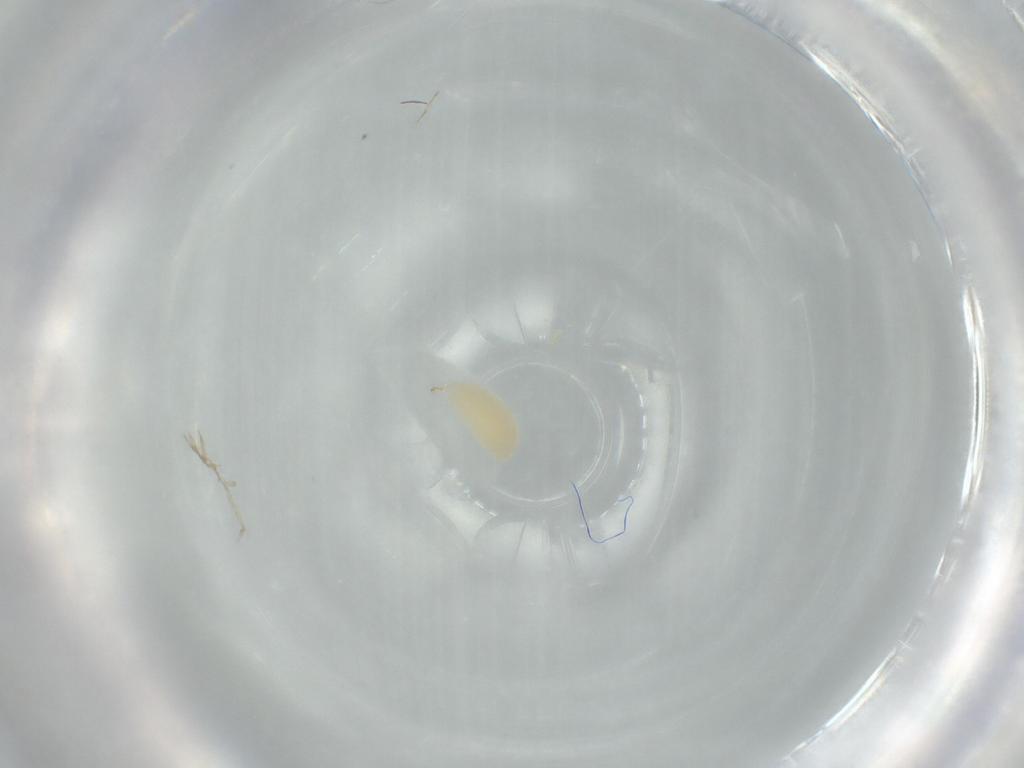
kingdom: Animalia
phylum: Arthropoda
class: Insecta
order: Hymenoptera
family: Ichneumonidae
